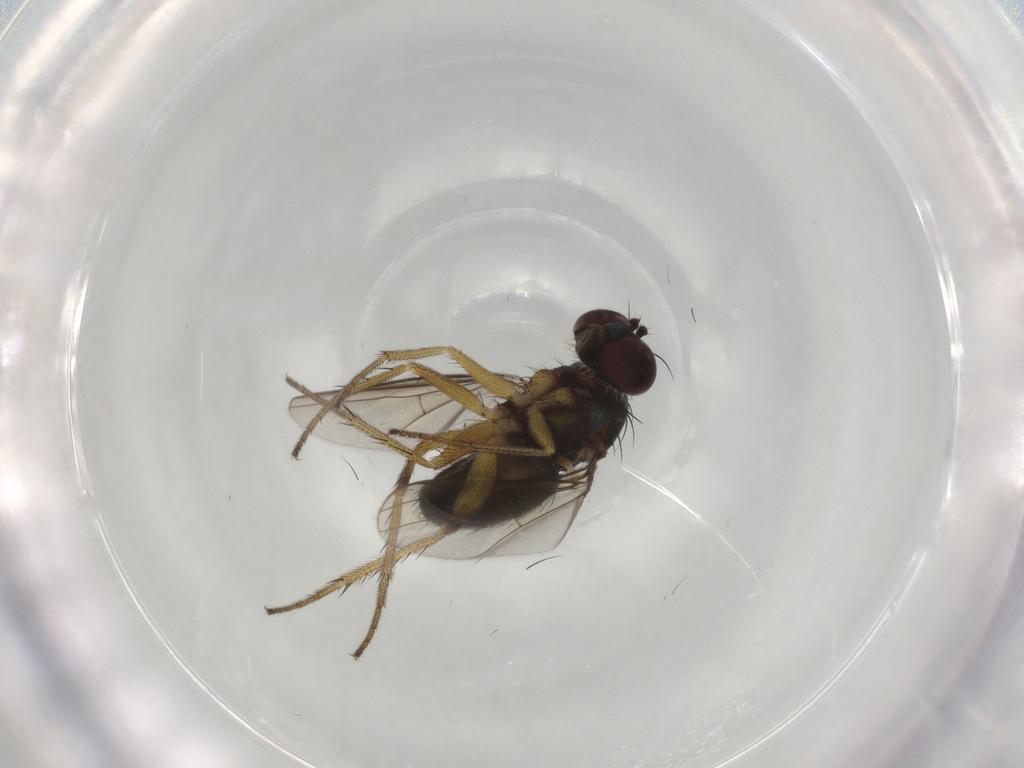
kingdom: Animalia
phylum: Arthropoda
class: Insecta
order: Diptera
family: Dolichopodidae
